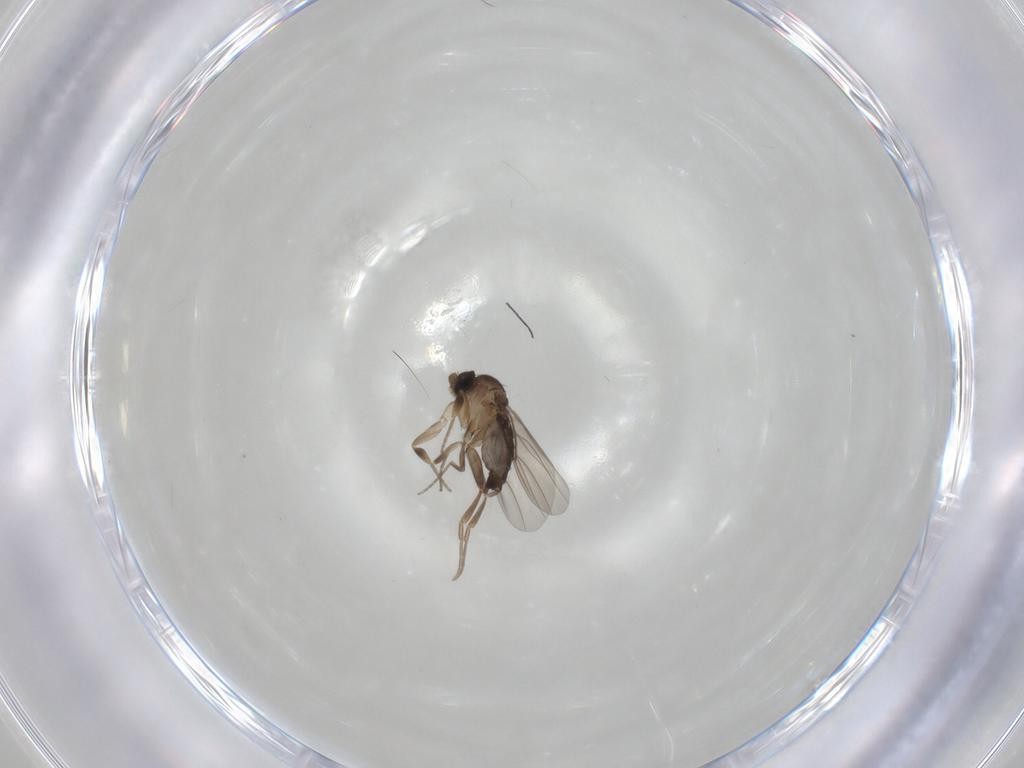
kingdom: Animalia
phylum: Arthropoda
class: Insecta
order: Diptera
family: Phoridae
